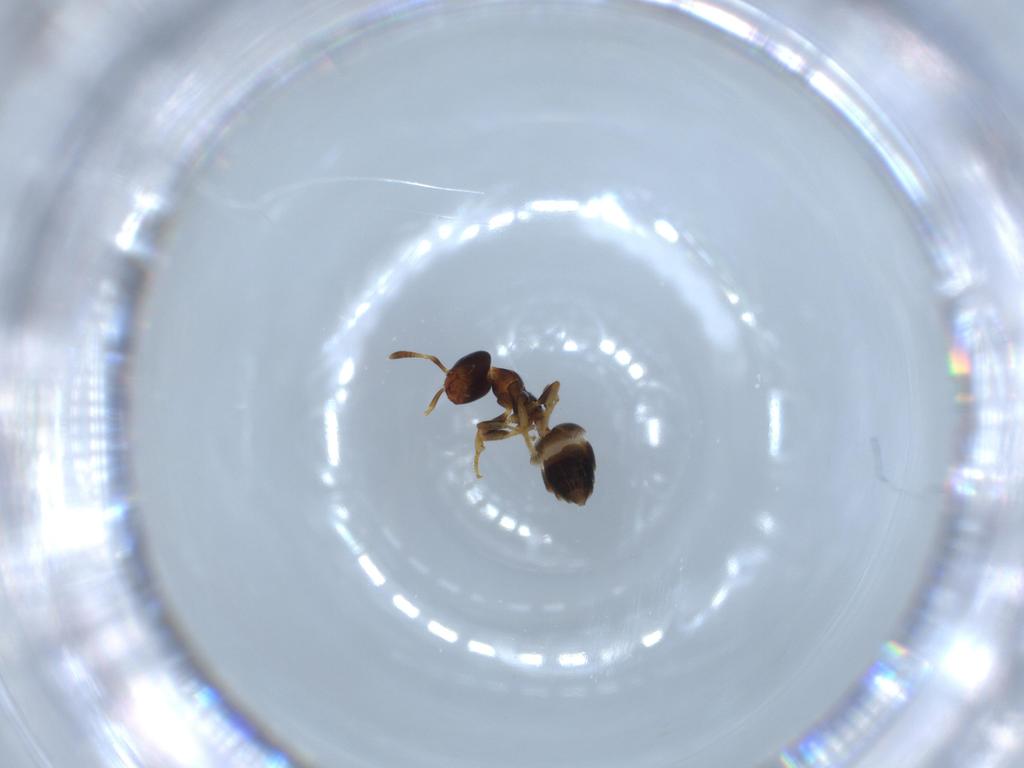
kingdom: Animalia
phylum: Arthropoda
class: Insecta
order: Hymenoptera
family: Formicidae
